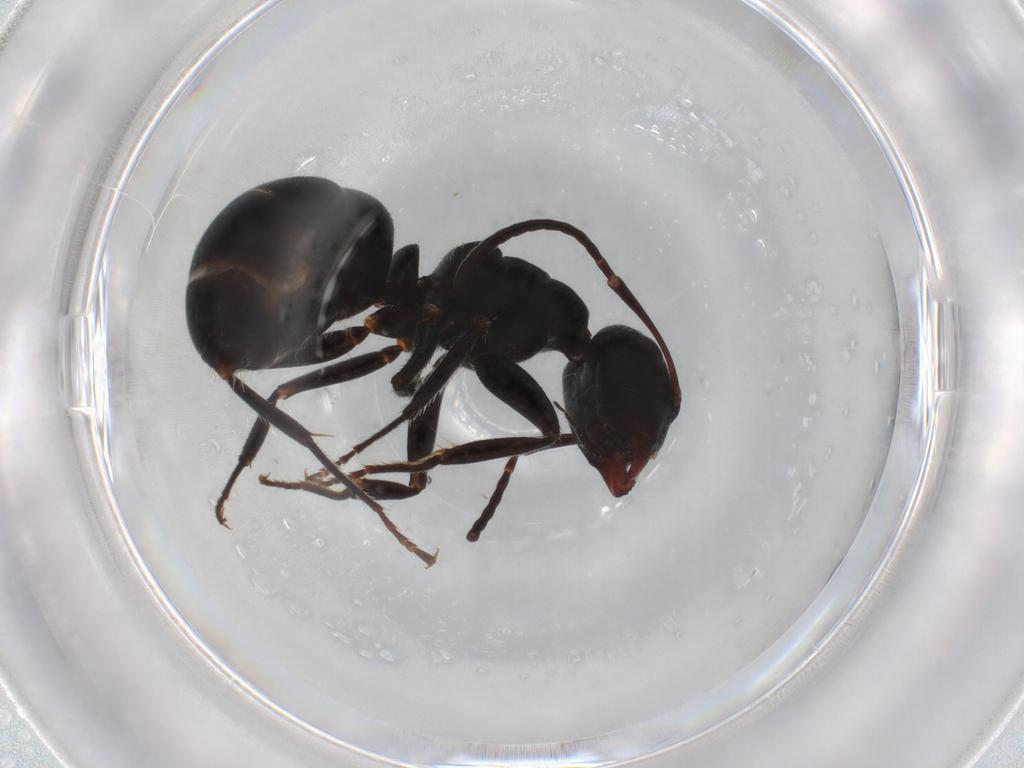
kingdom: Animalia
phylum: Arthropoda
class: Insecta
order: Hymenoptera
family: Formicidae
